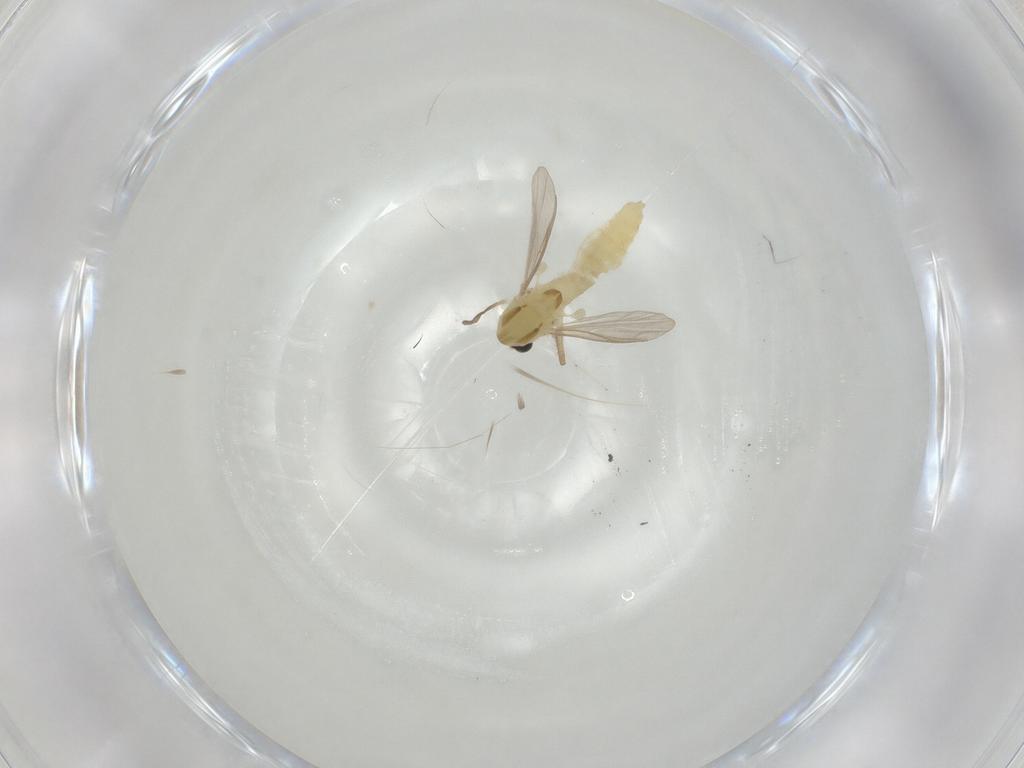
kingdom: Animalia
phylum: Arthropoda
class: Insecta
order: Diptera
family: Chironomidae
